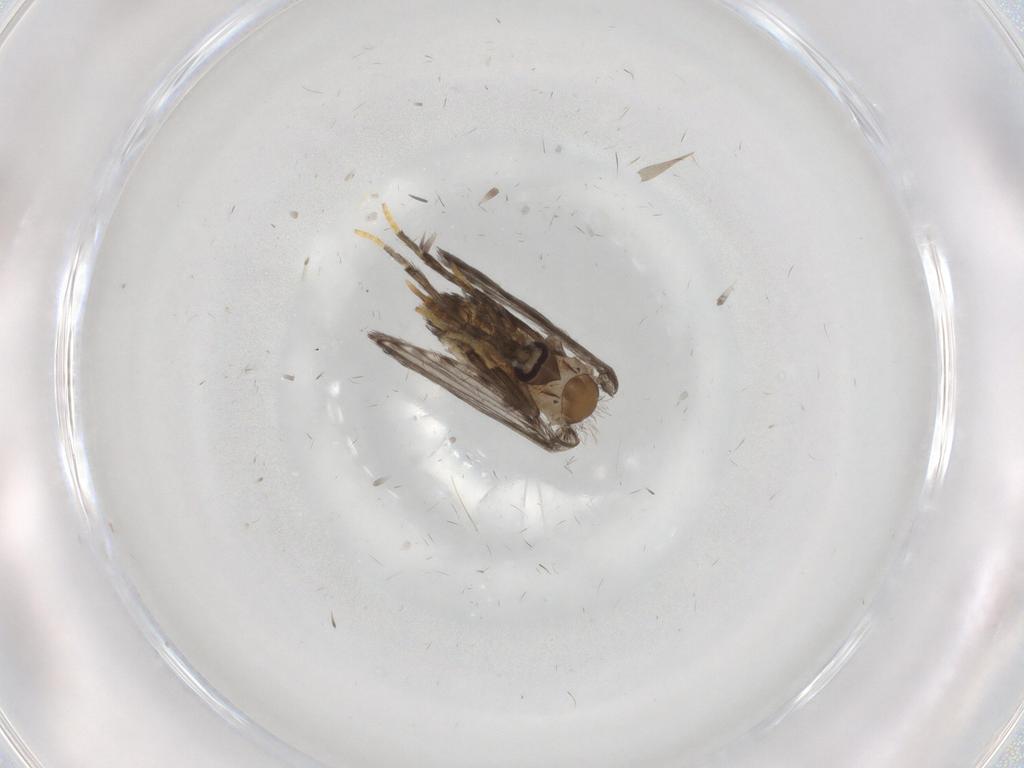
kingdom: Animalia
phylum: Arthropoda
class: Insecta
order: Diptera
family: Cecidomyiidae
